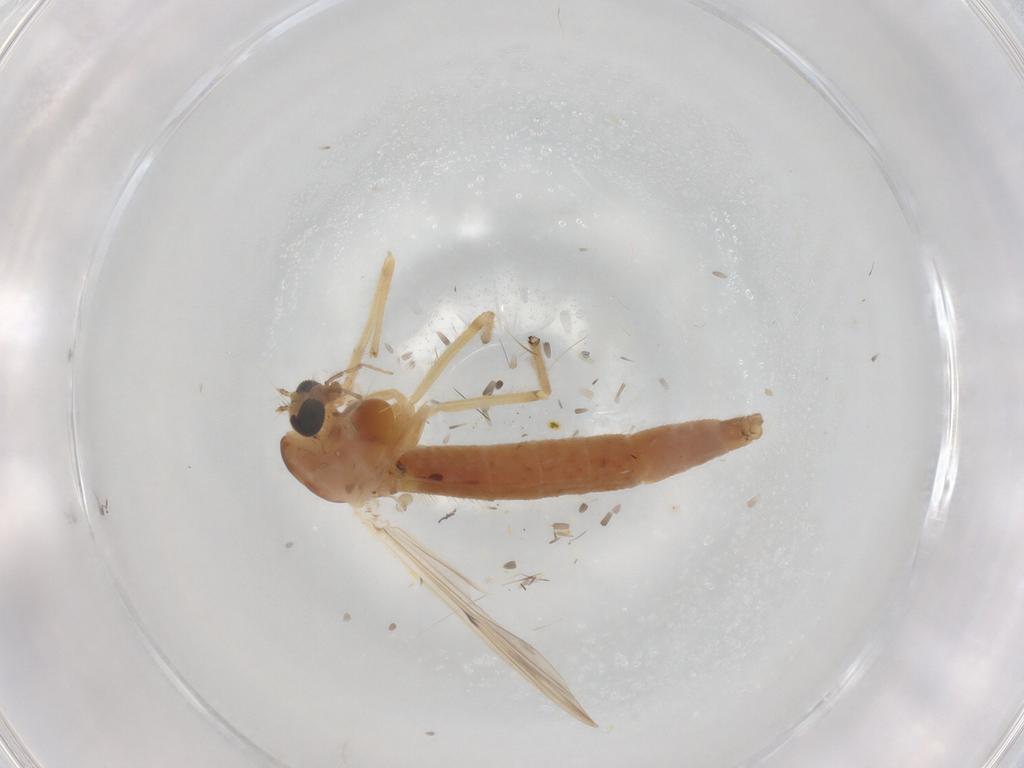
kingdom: Animalia
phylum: Arthropoda
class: Insecta
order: Diptera
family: Chironomidae
